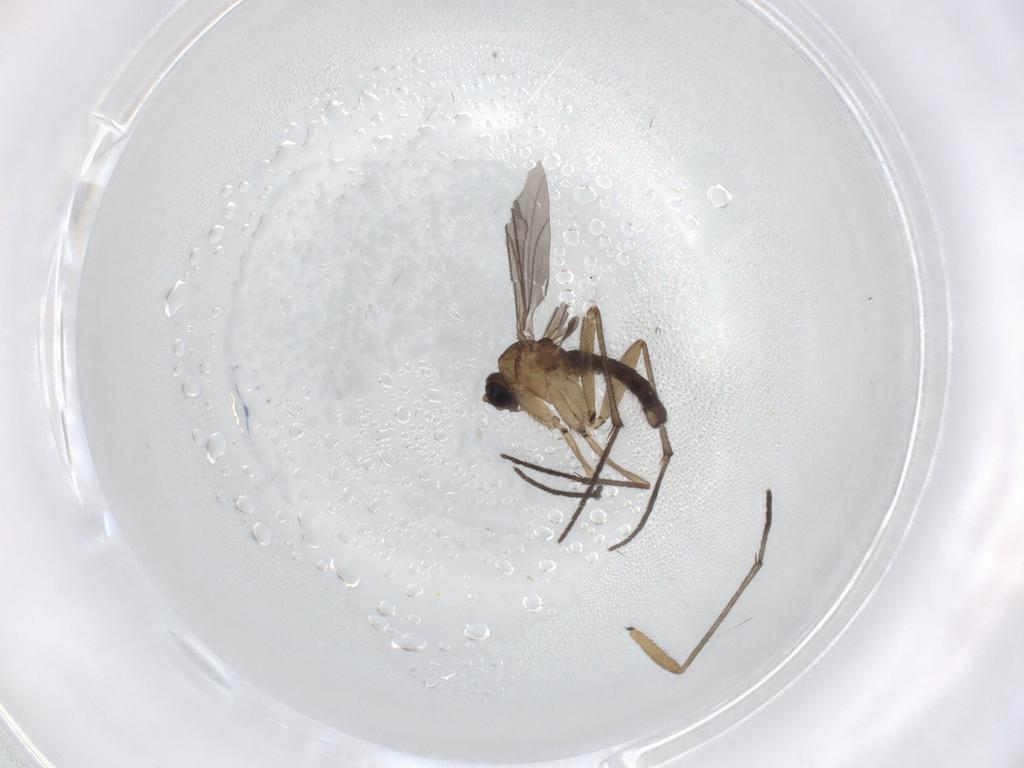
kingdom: Animalia
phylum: Arthropoda
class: Insecta
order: Diptera
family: Sciaridae
